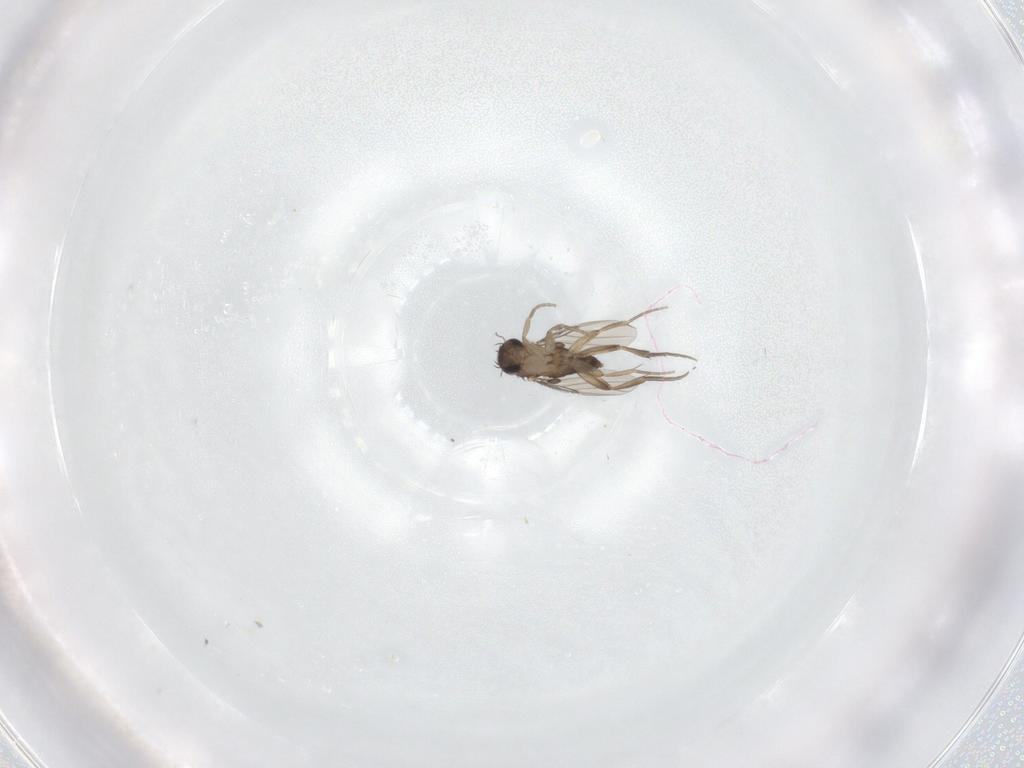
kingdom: Animalia
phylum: Arthropoda
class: Insecta
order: Diptera
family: Phoridae
